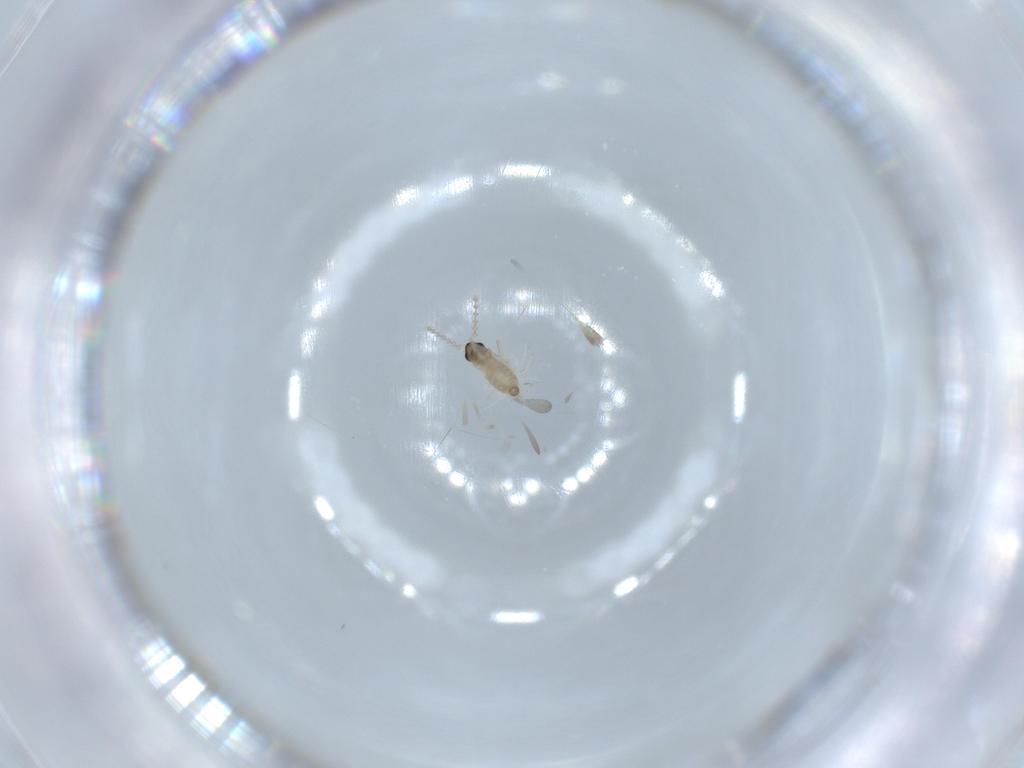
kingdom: Animalia
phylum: Arthropoda
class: Insecta
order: Diptera
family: Cecidomyiidae
